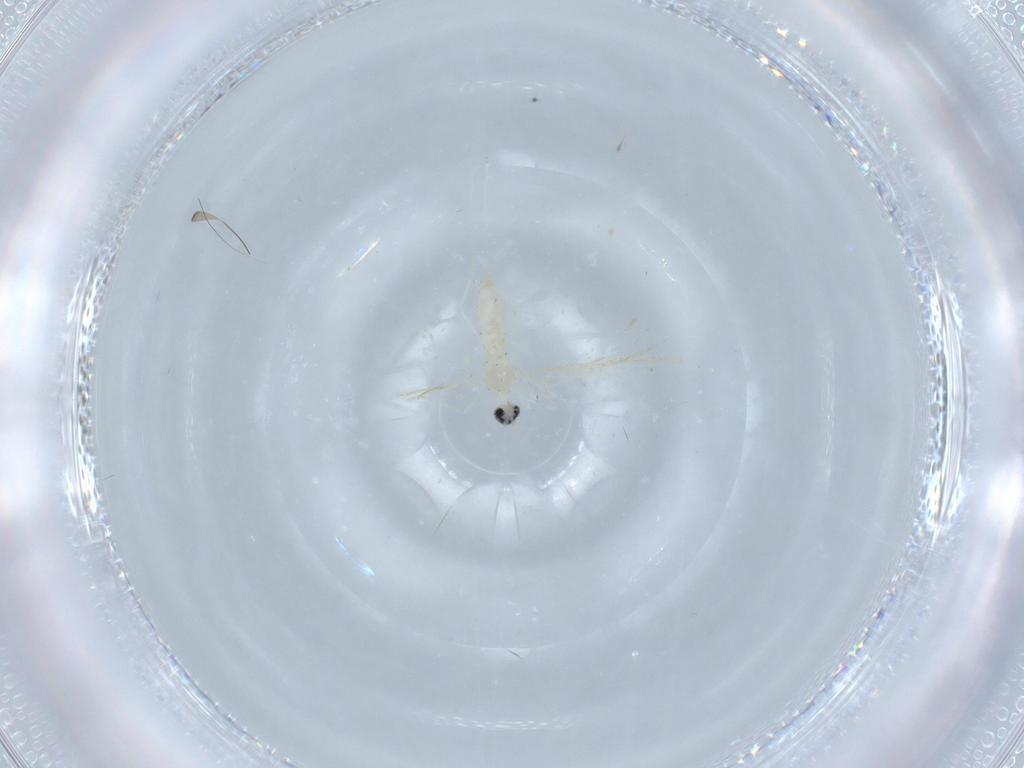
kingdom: Animalia
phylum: Arthropoda
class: Insecta
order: Diptera
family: Cecidomyiidae
